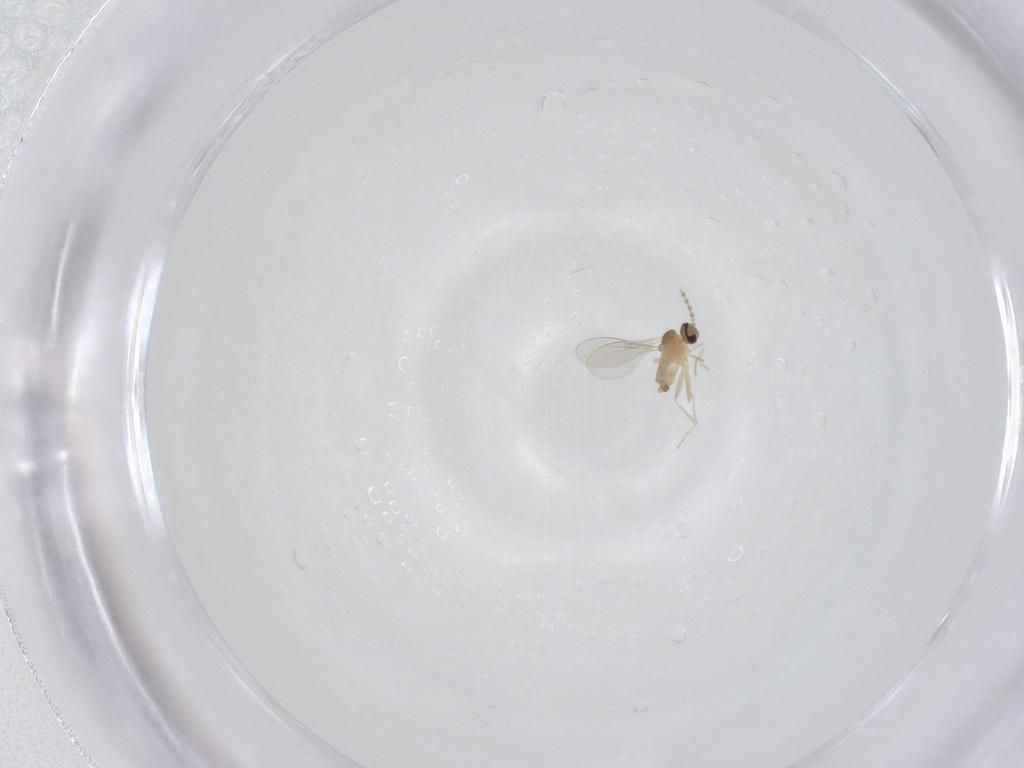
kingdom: Animalia
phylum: Arthropoda
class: Insecta
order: Diptera
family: Cecidomyiidae
